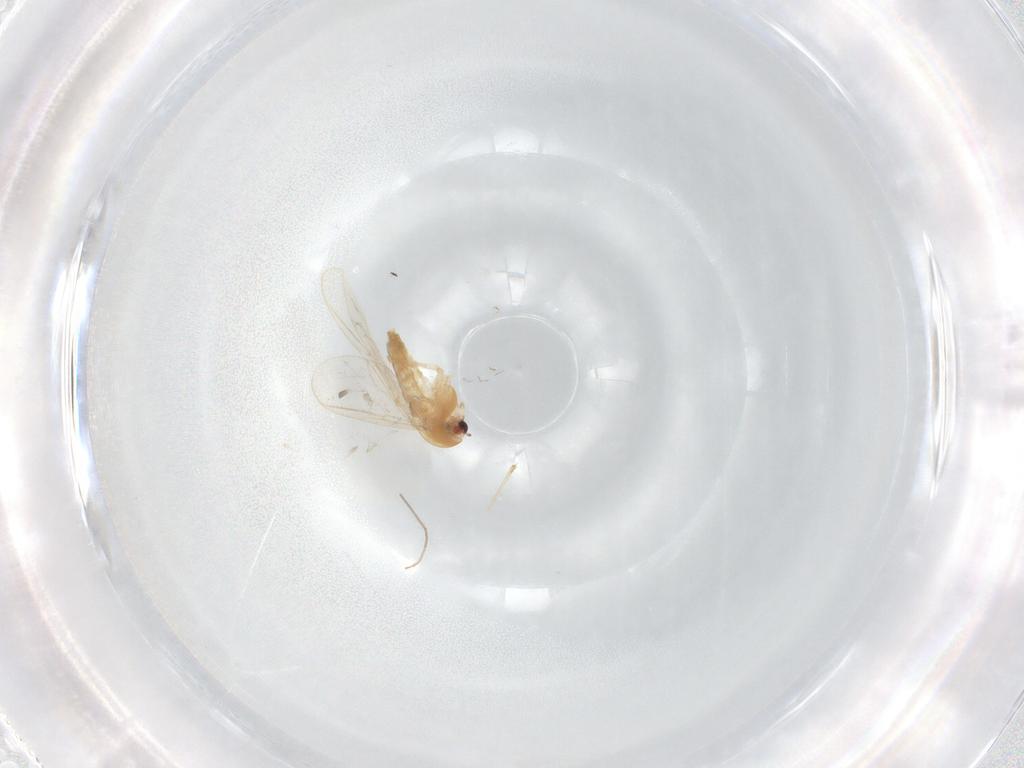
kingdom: Animalia
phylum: Arthropoda
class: Insecta
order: Diptera
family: Chironomidae
